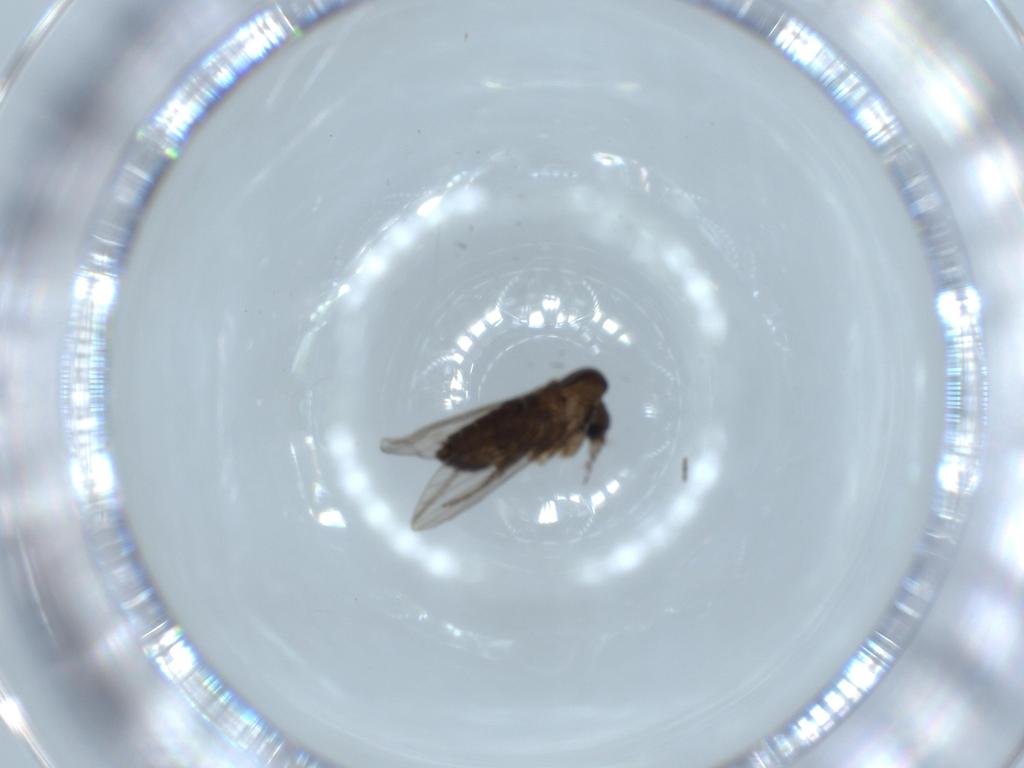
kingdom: Animalia
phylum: Arthropoda
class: Insecta
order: Diptera
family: Psychodidae
